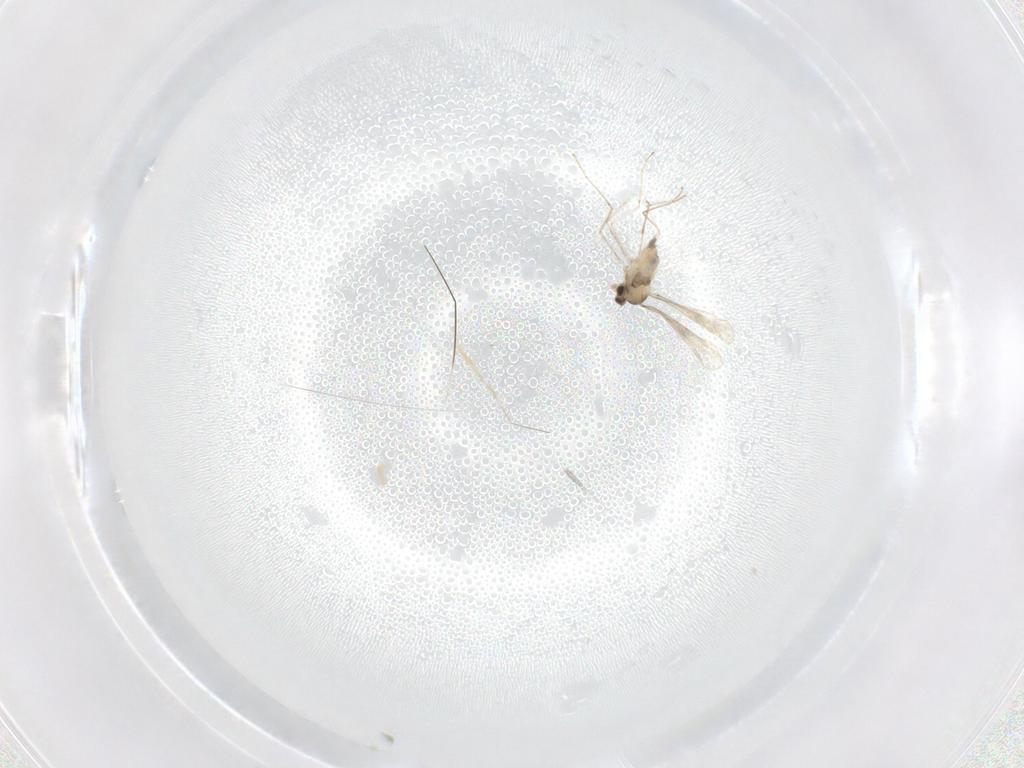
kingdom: Animalia
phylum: Arthropoda
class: Insecta
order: Diptera
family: Cecidomyiidae
